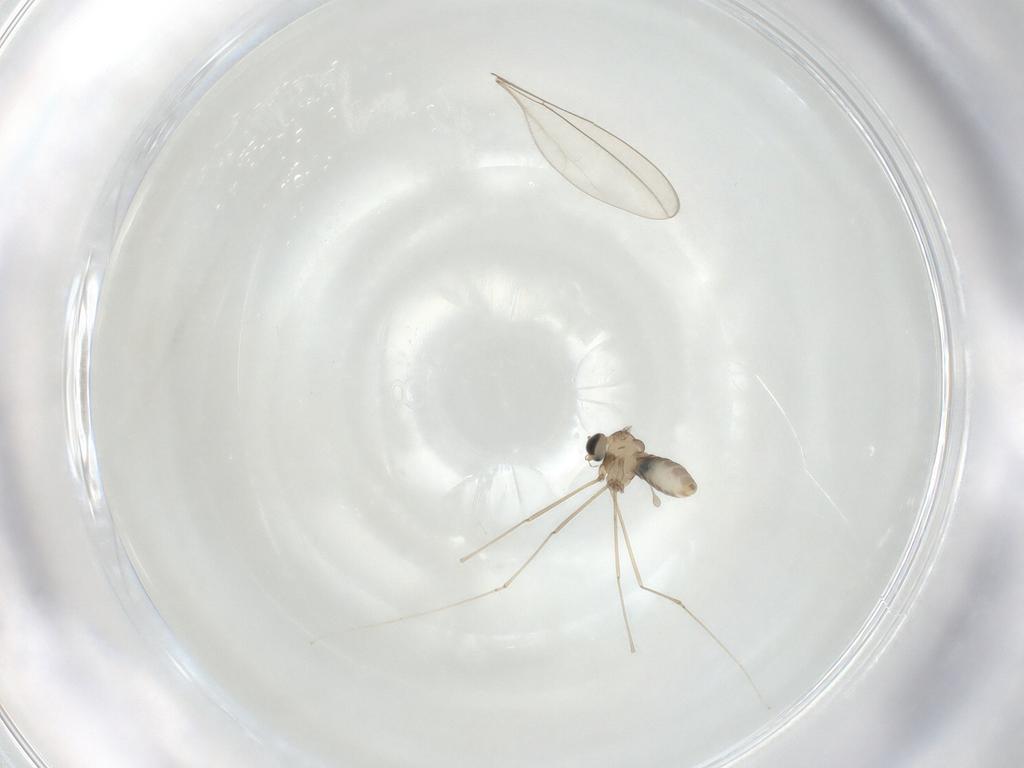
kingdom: Animalia
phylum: Arthropoda
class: Insecta
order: Diptera
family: Cecidomyiidae
